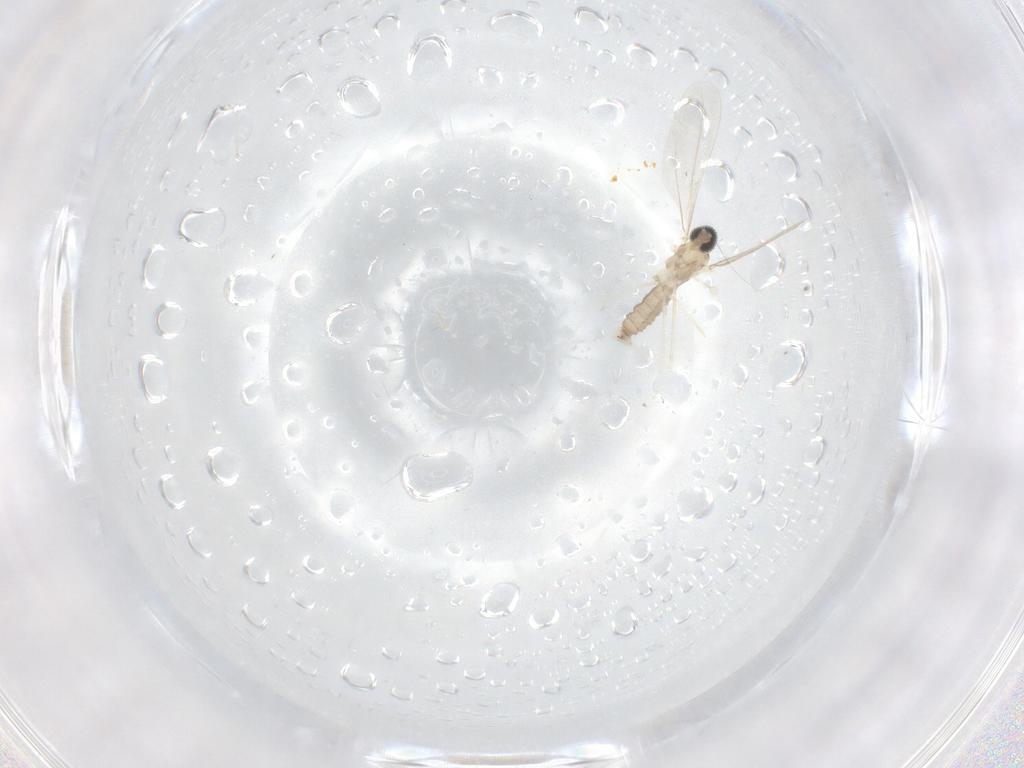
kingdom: Animalia
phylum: Arthropoda
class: Insecta
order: Diptera
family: Cecidomyiidae
